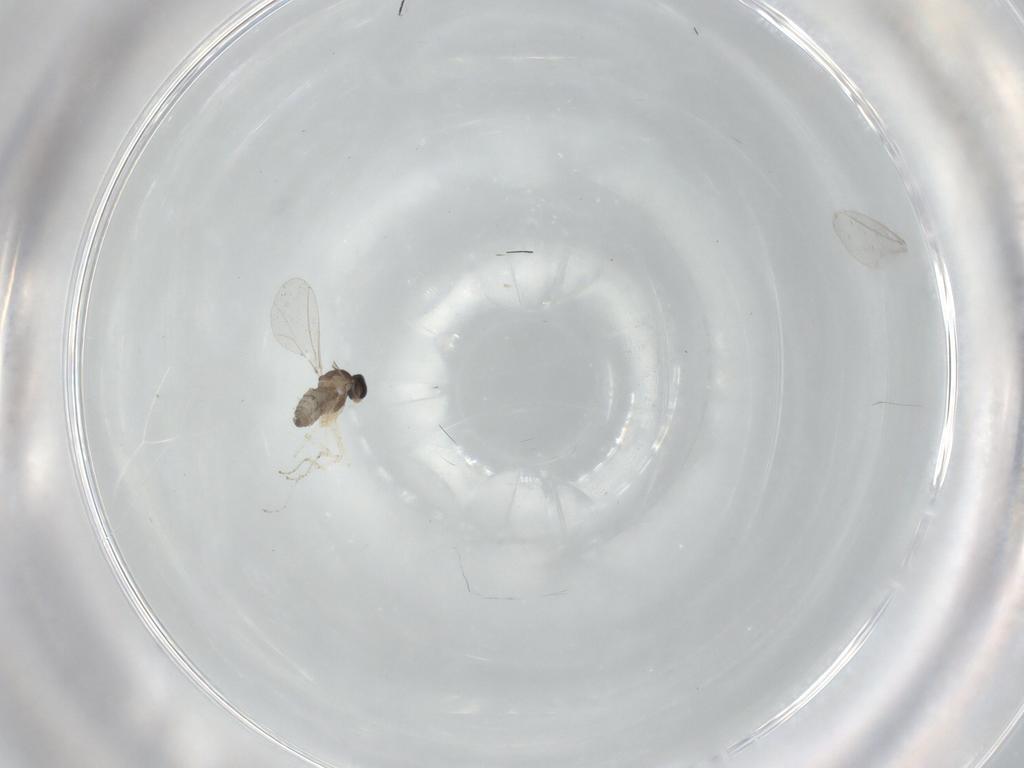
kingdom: Animalia
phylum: Arthropoda
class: Insecta
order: Diptera
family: Cecidomyiidae
